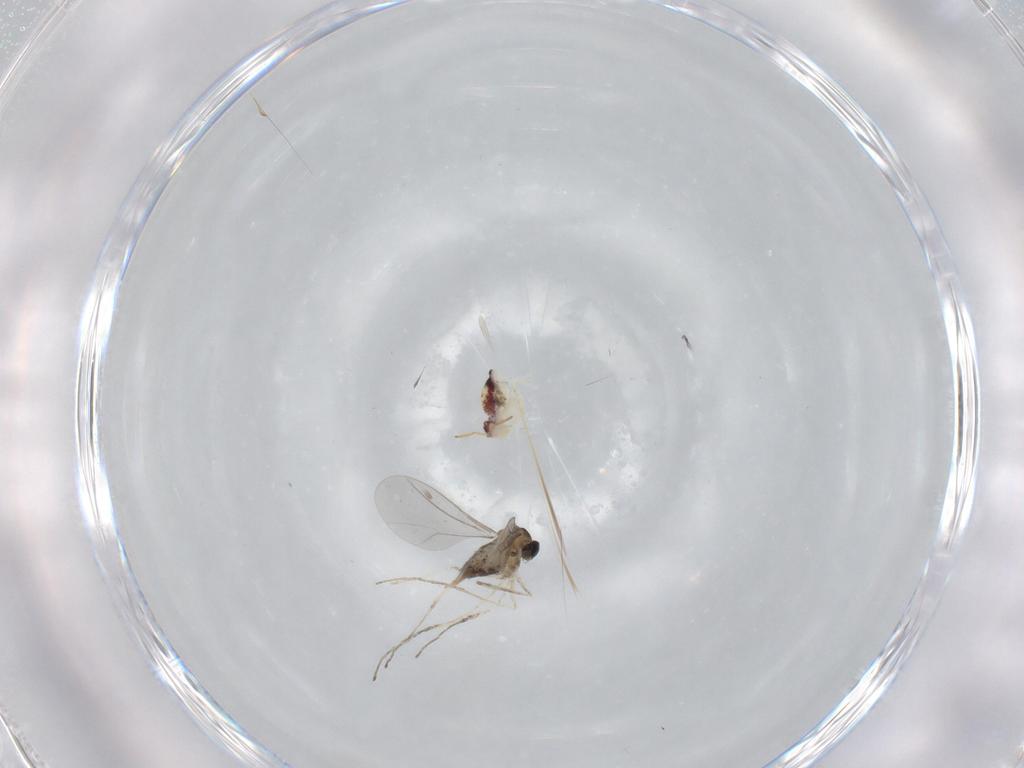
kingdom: Animalia
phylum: Arthropoda
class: Insecta
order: Diptera
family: Cecidomyiidae
